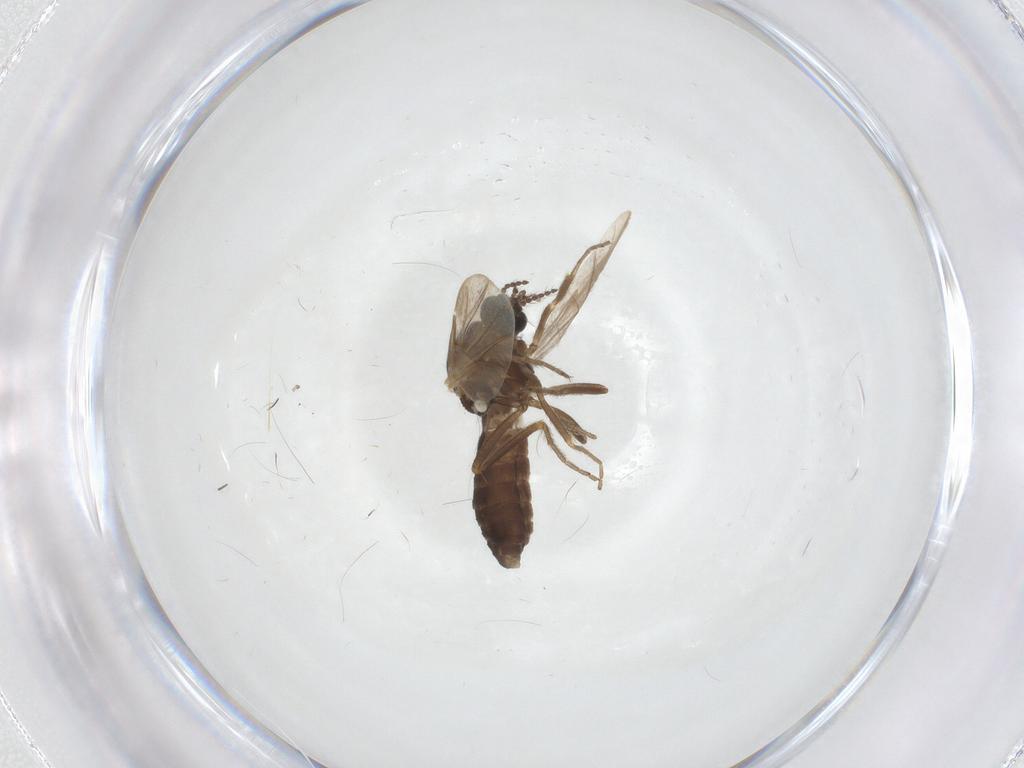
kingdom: Animalia
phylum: Arthropoda
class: Insecta
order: Diptera
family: Ceratopogonidae
